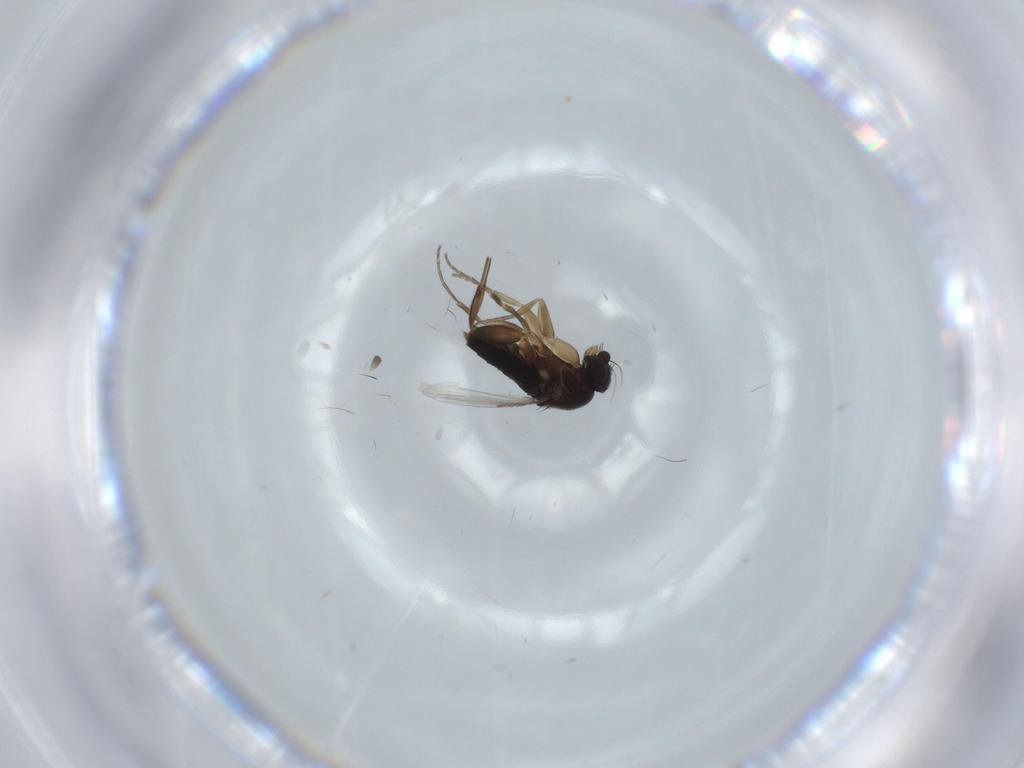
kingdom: Animalia
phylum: Arthropoda
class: Insecta
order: Diptera
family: Phoridae
